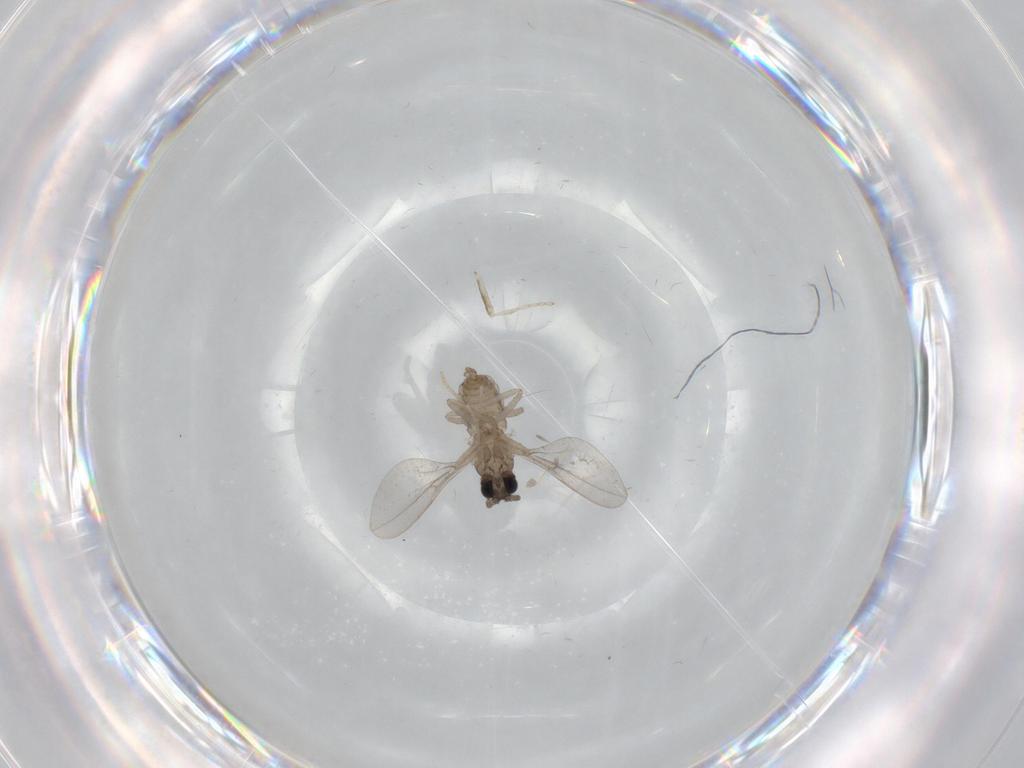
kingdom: Animalia
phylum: Arthropoda
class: Insecta
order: Diptera
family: Cecidomyiidae
